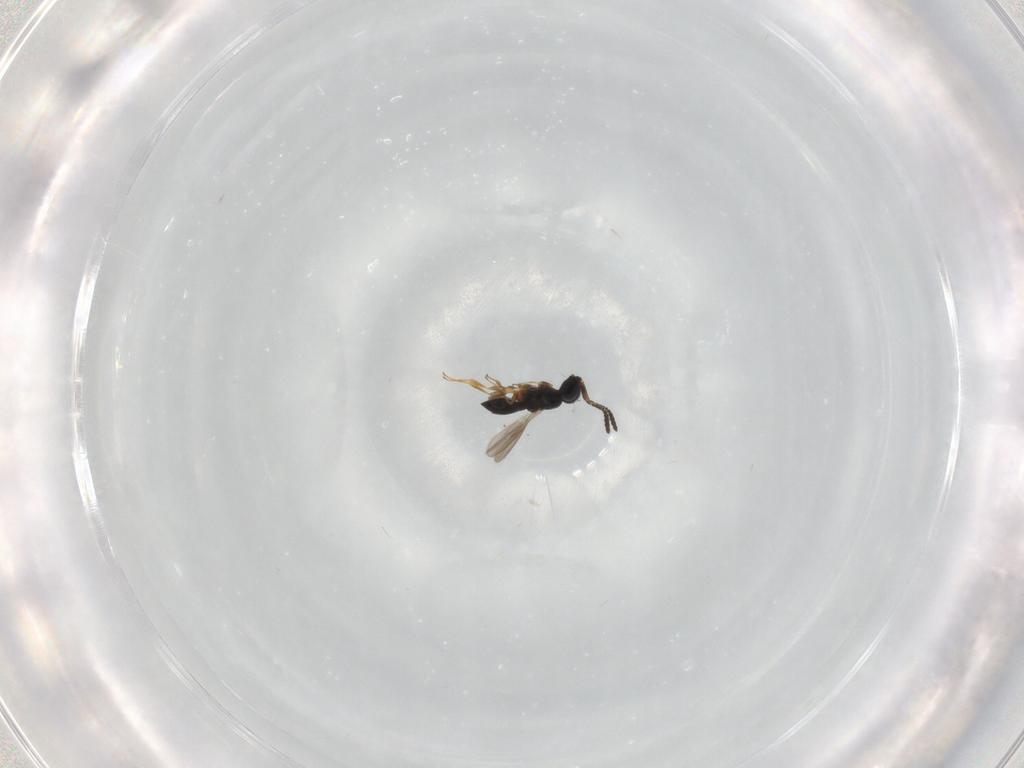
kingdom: Animalia
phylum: Arthropoda
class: Insecta
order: Hymenoptera
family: Scelionidae
